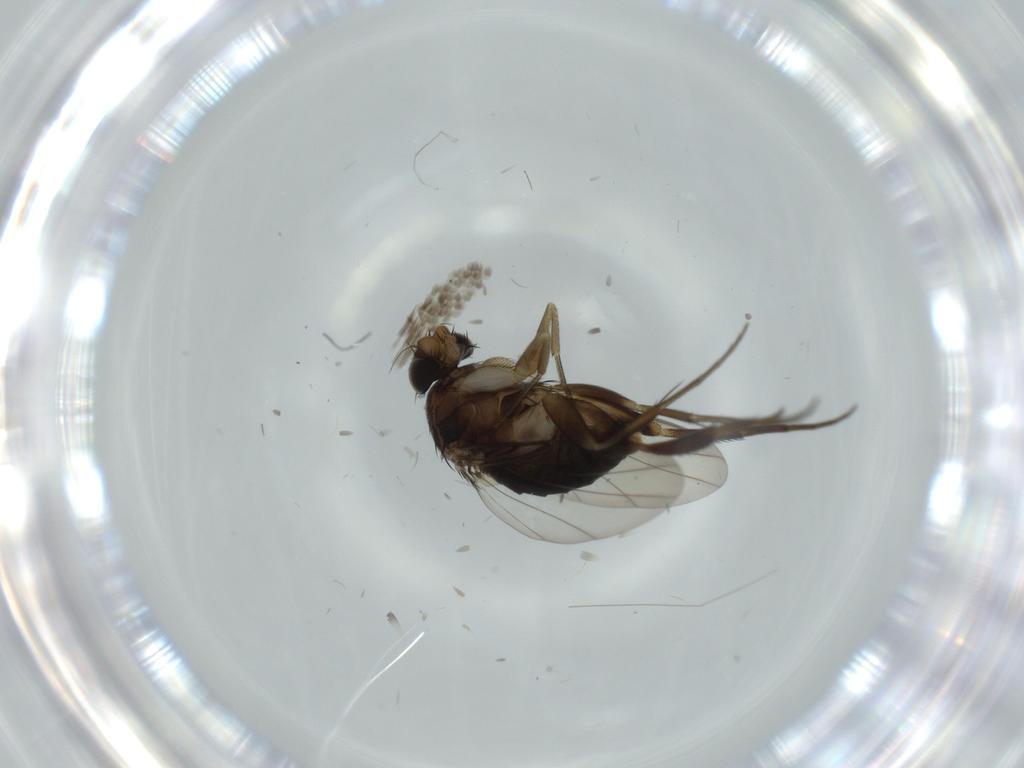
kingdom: Animalia
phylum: Arthropoda
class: Insecta
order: Diptera
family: Phoridae
